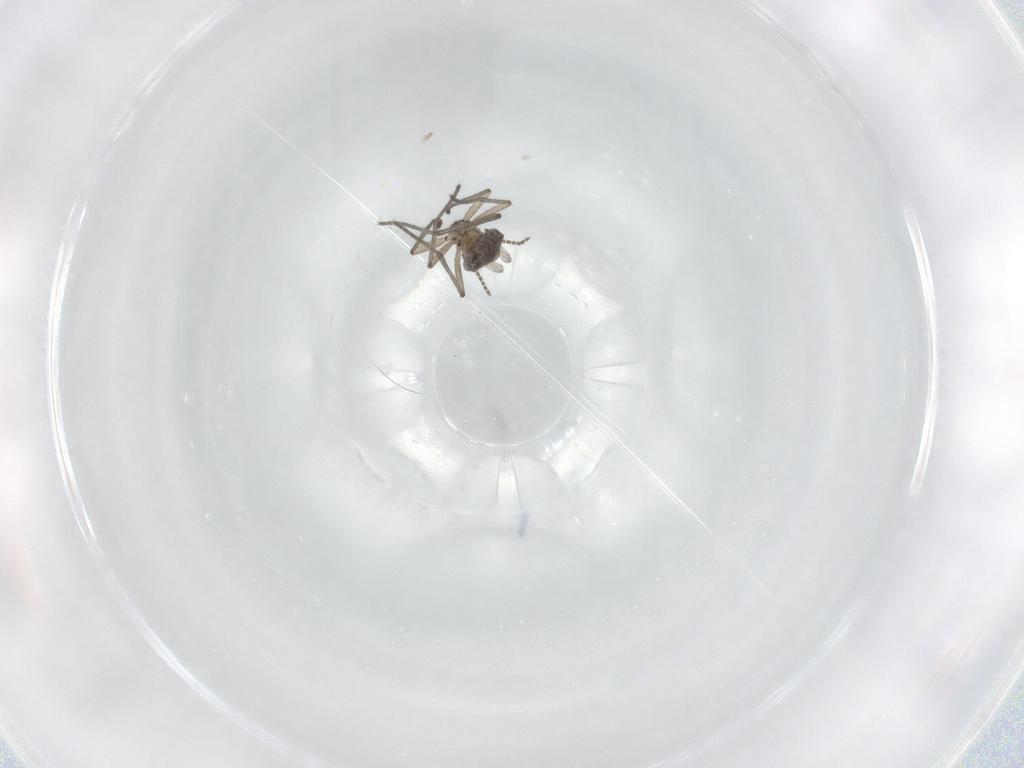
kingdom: Animalia
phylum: Arthropoda
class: Insecta
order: Diptera
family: Sciaridae
